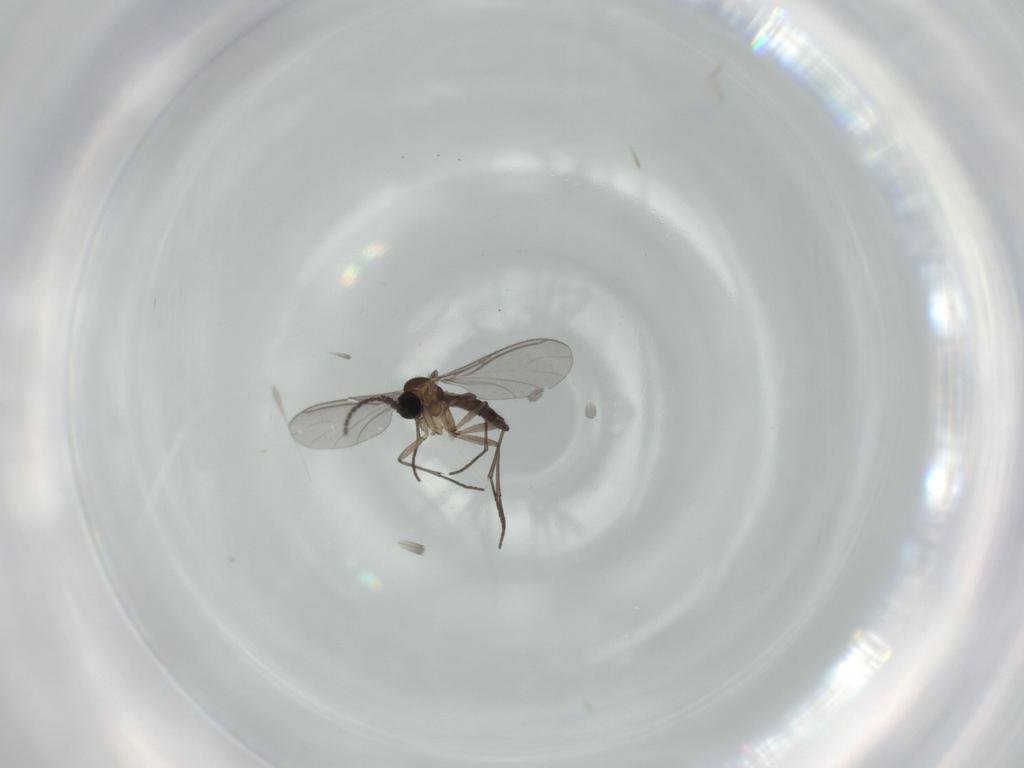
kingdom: Animalia
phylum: Arthropoda
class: Insecta
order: Diptera
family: Sciaridae
